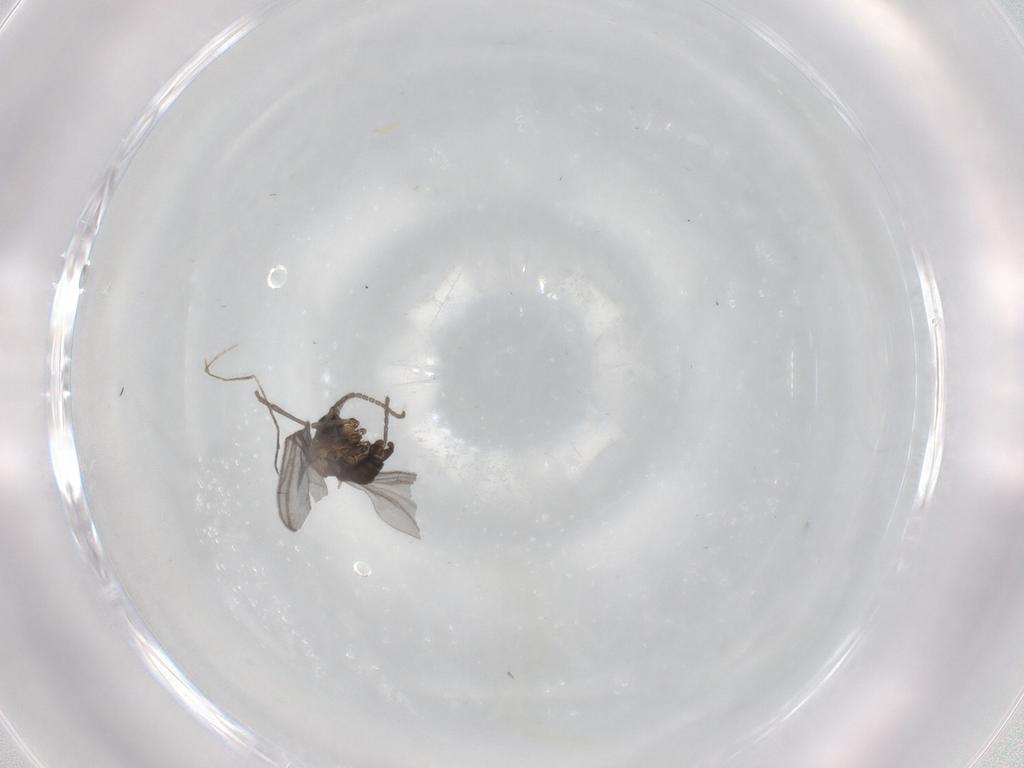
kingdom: Animalia
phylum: Arthropoda
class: Insecta
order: Diptera
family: Sciaridae
